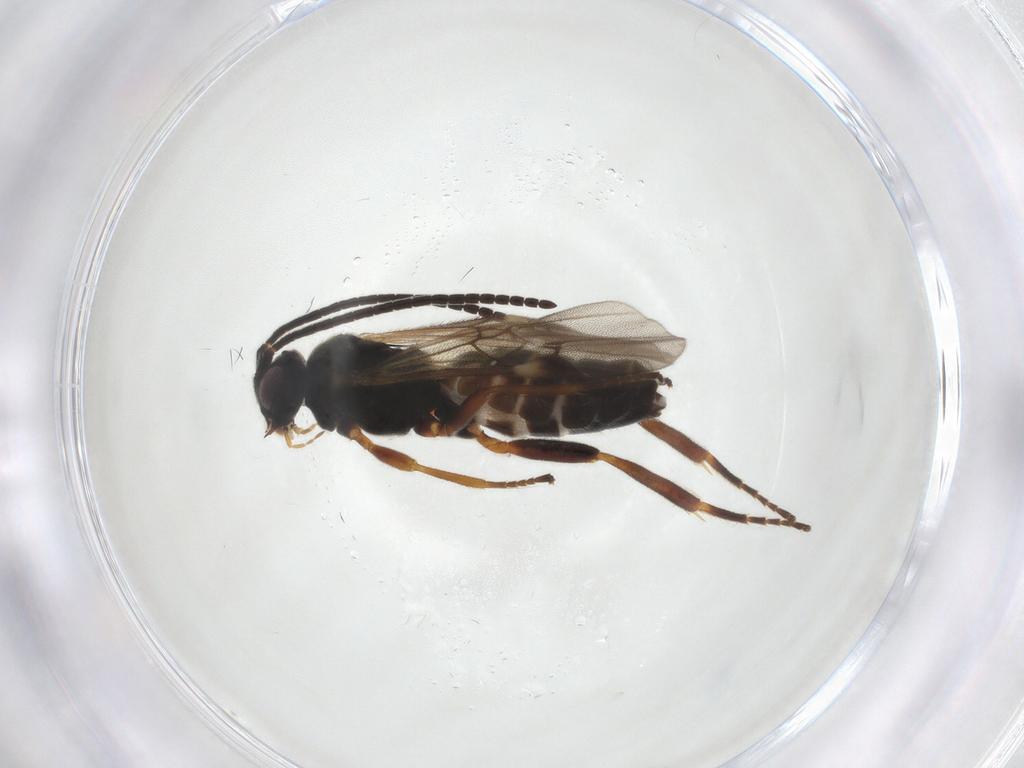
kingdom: Animalia
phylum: Arthropoda
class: Insecta
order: Hymenoptera
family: Braconidae
